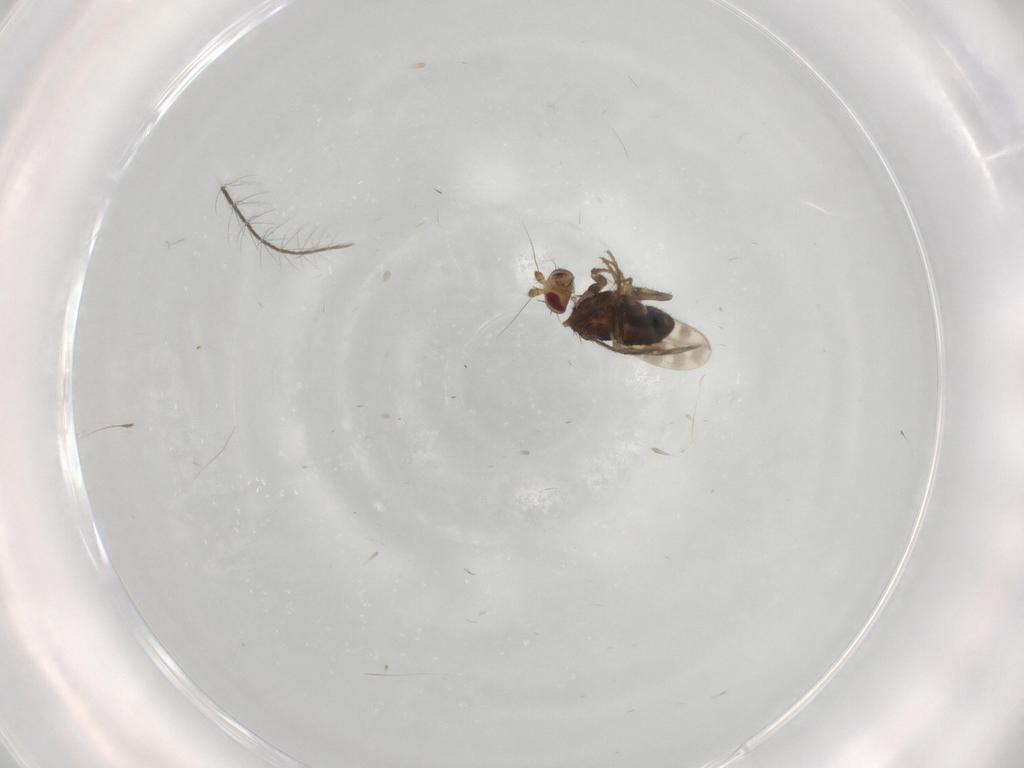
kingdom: Animalia
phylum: Arthropoda
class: Insecta
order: Diptera
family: Sphaeroceridae
